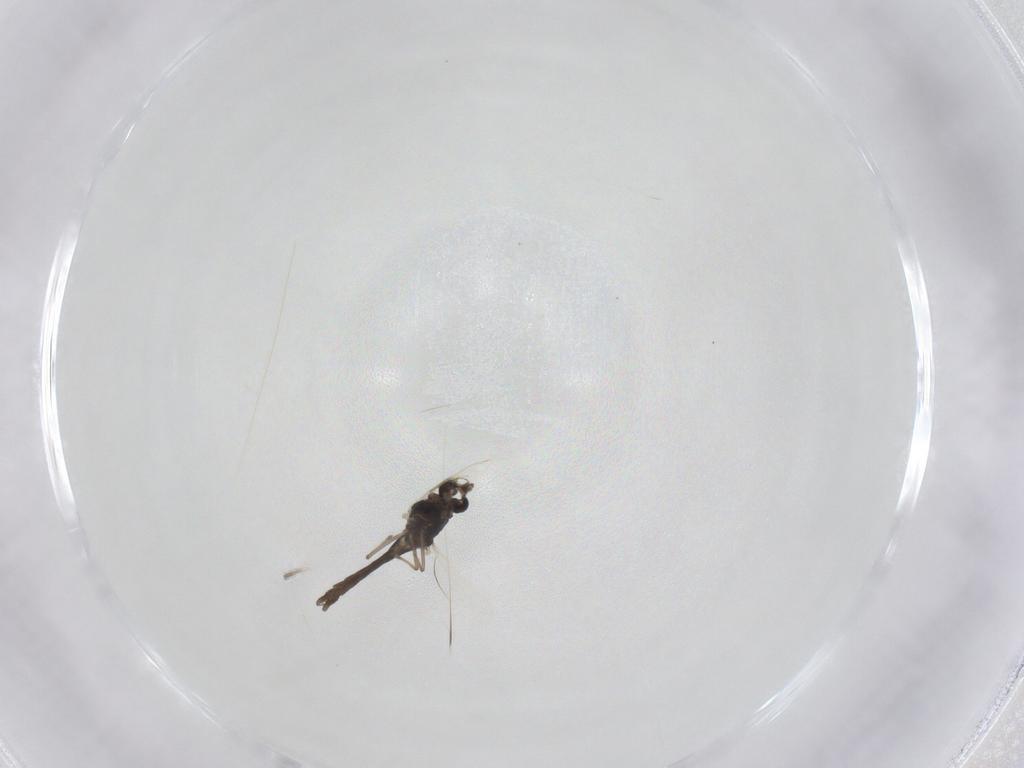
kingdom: Animalia
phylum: Arthropoda
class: Insecta
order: Diptera
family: Chironomidae
